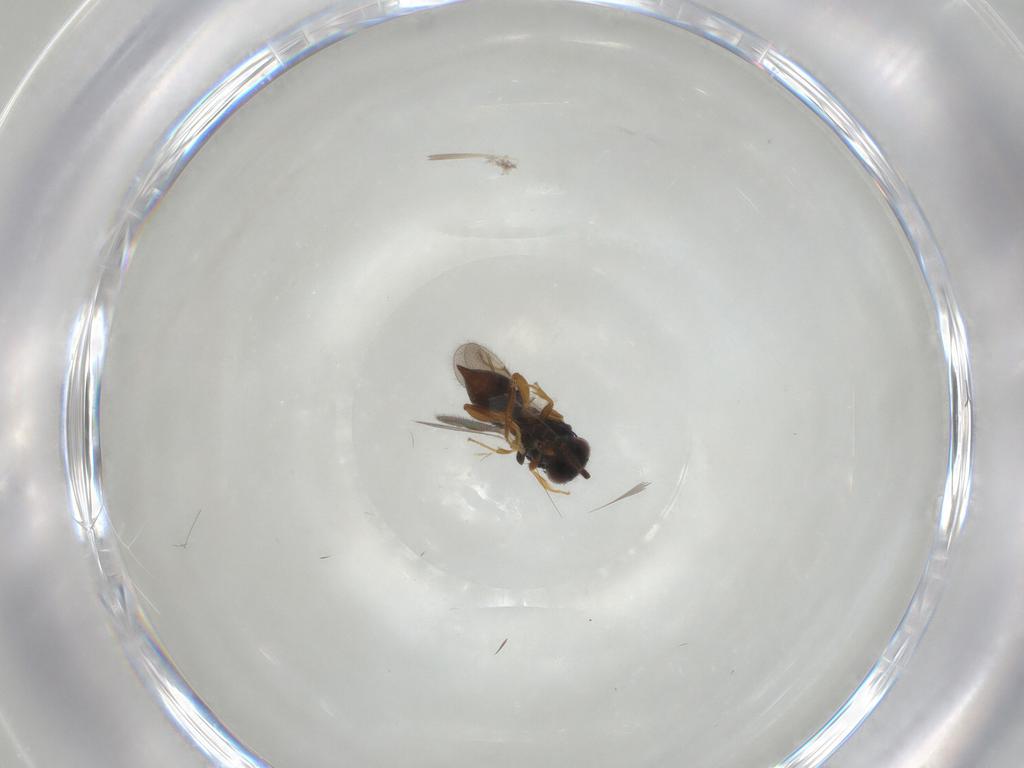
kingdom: Animalia
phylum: Arthropoda
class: Insecta
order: Hymenoptera
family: Ceraphronidae
